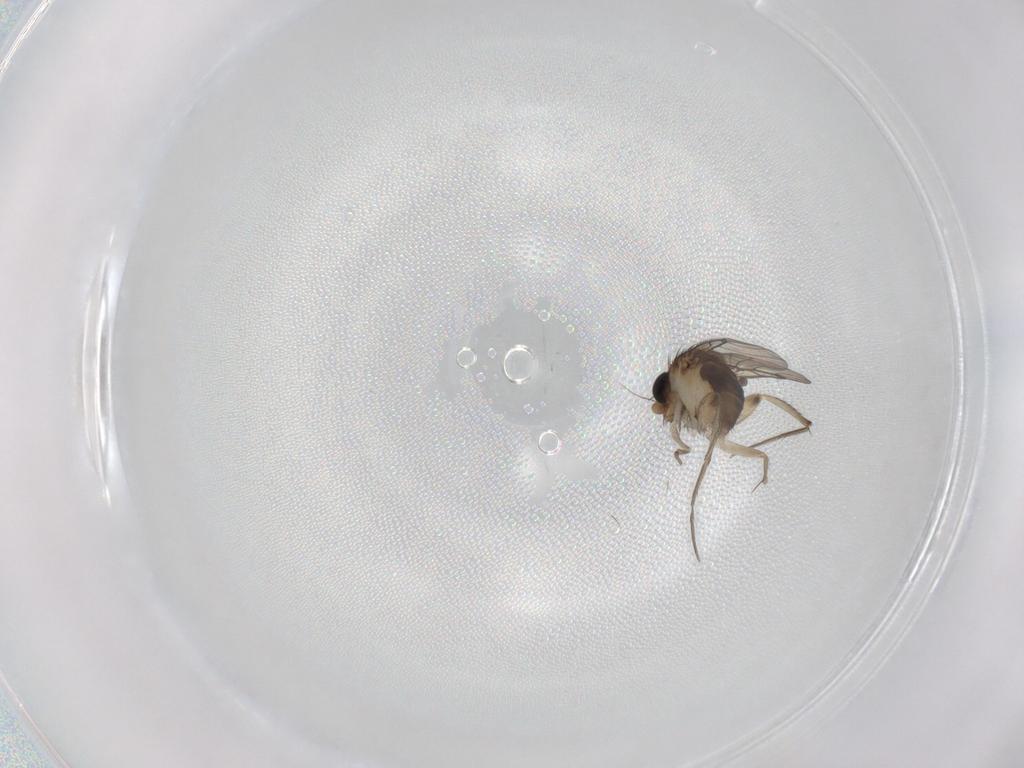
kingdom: Animalia
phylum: Arthropoda
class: Insecta
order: Diptera
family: Phoridae
